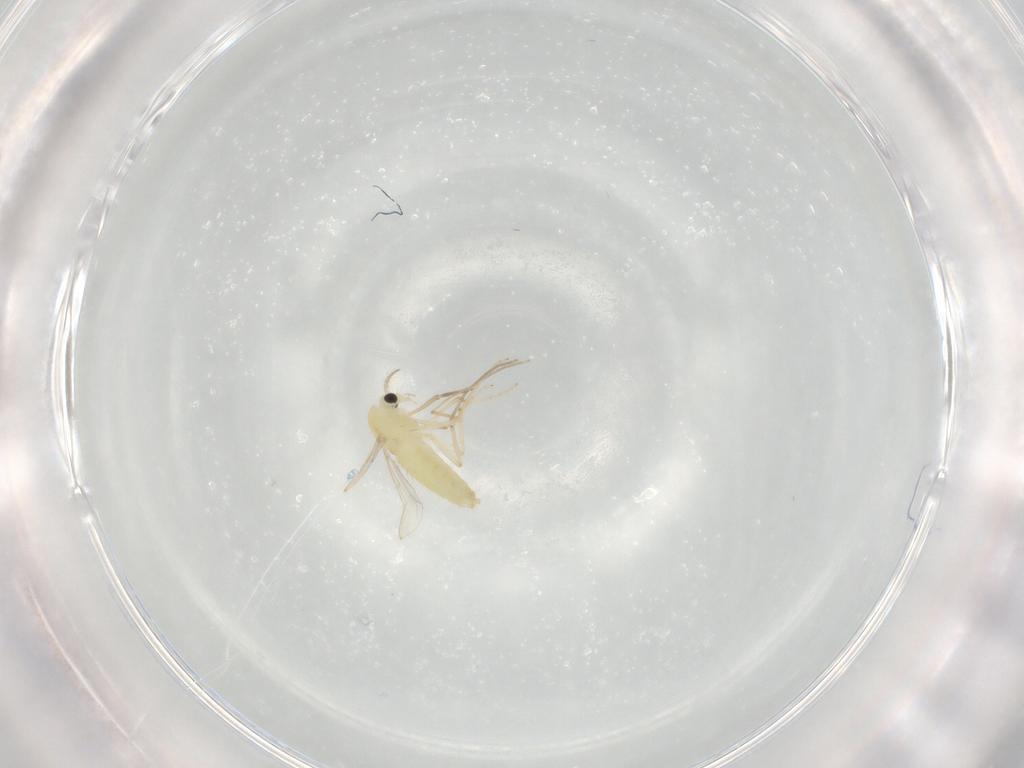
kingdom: Animalia
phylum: Arthropoda
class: Insecta
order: Diptera
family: Chironomidae
